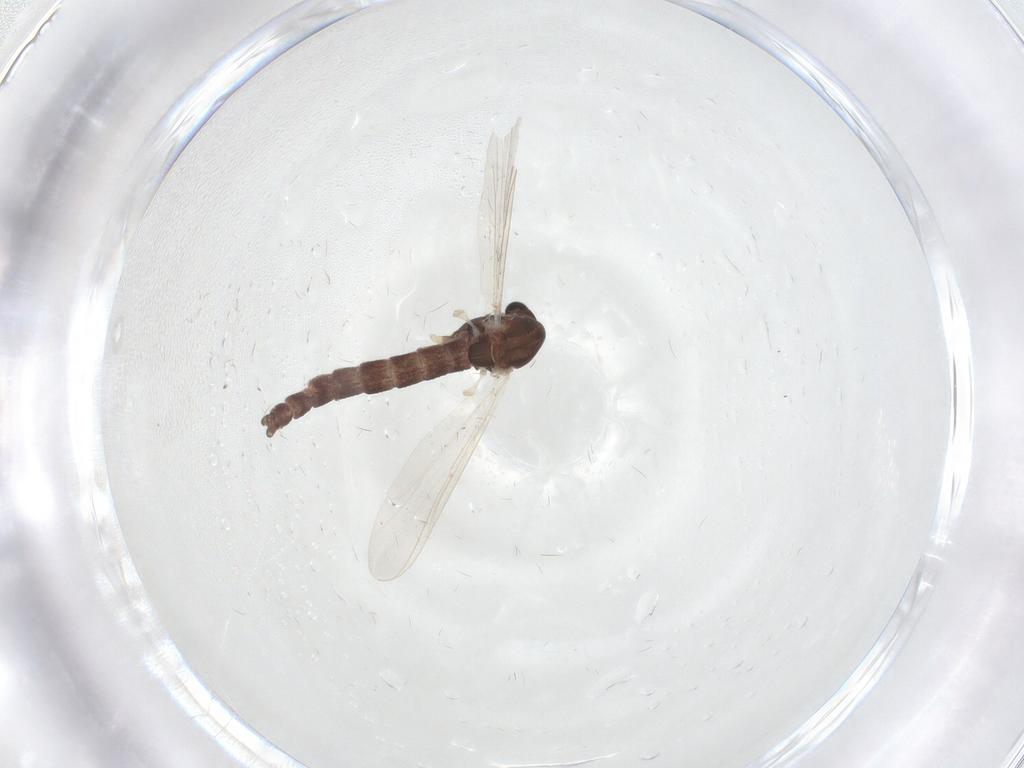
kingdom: Animalia
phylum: Arthropoda
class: Insecta
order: Diptera
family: Chironomidae
